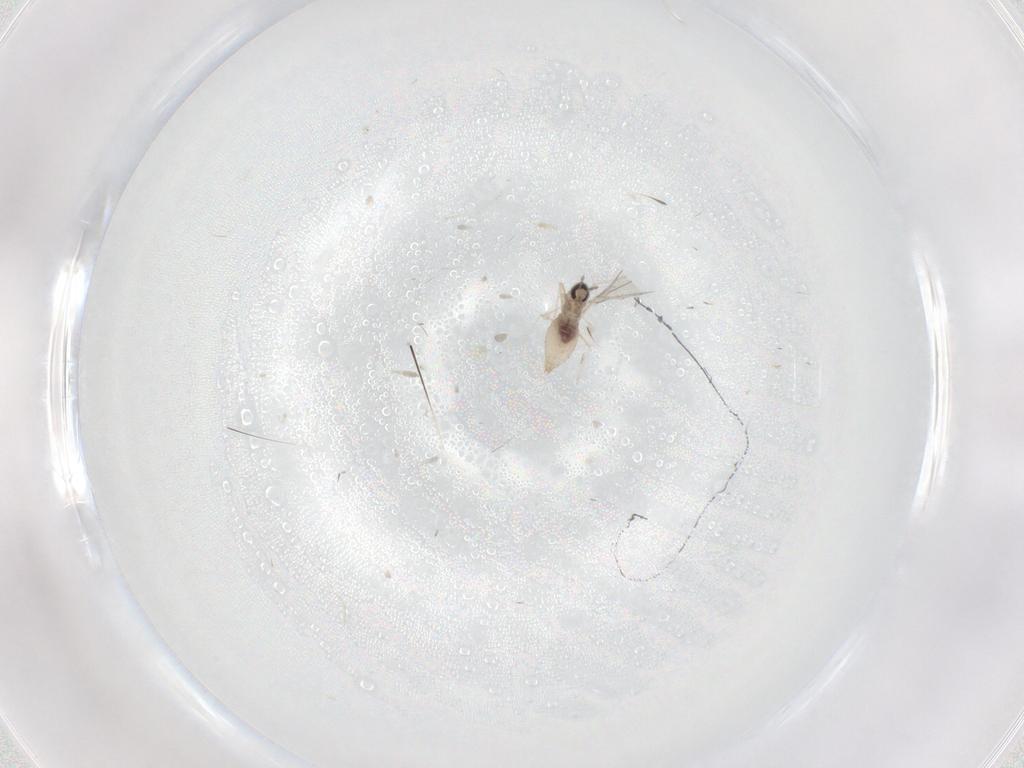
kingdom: Animalia
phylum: Arthropoda
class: Insecta
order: Diptera
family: Cecidomyiidae
